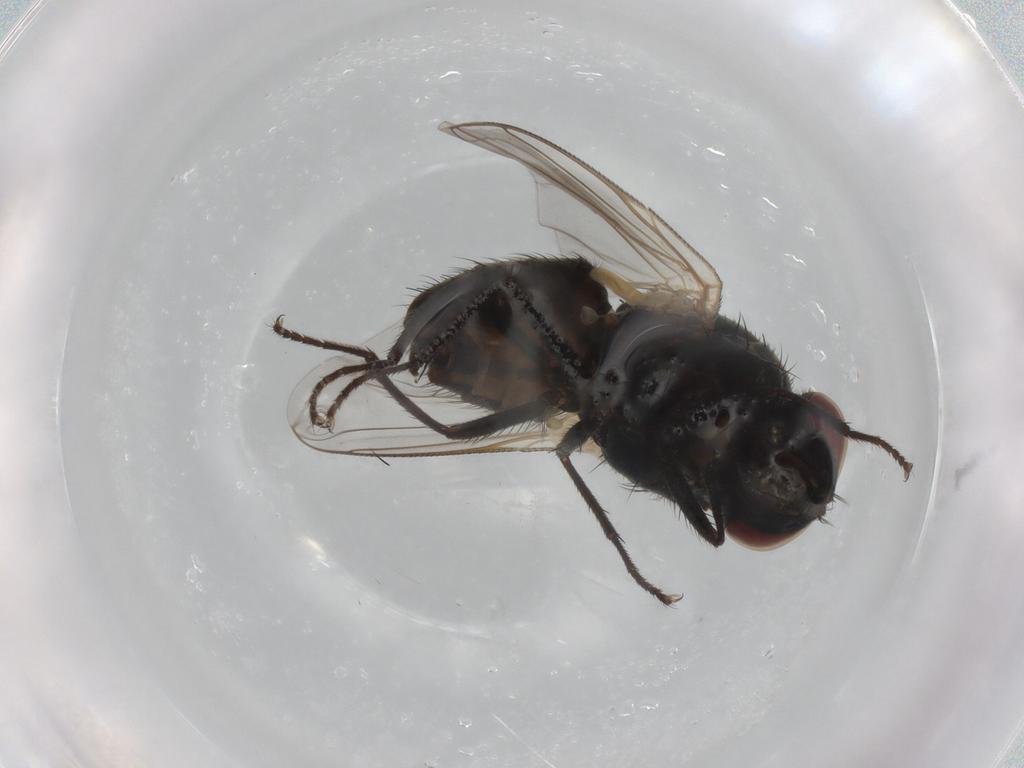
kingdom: Animalia
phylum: Arthropoda
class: Insecta
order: Diptera
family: Muscidae
